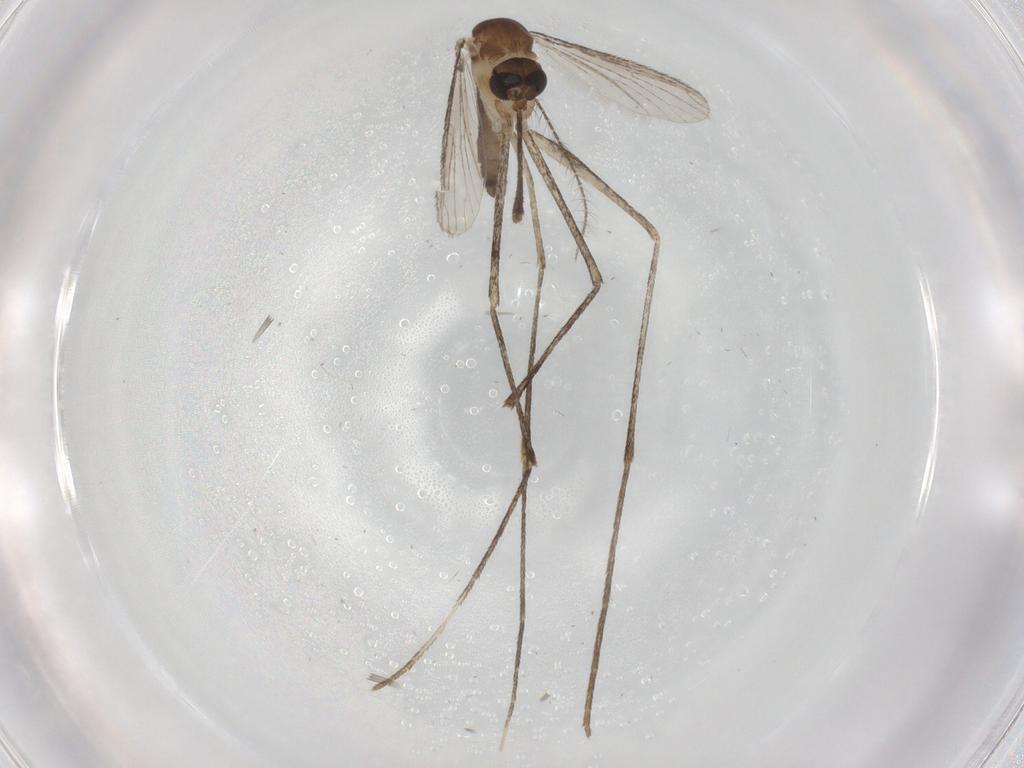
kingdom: Animalia
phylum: Arthropoda
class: Insecta
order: Diptera
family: Culicidae
